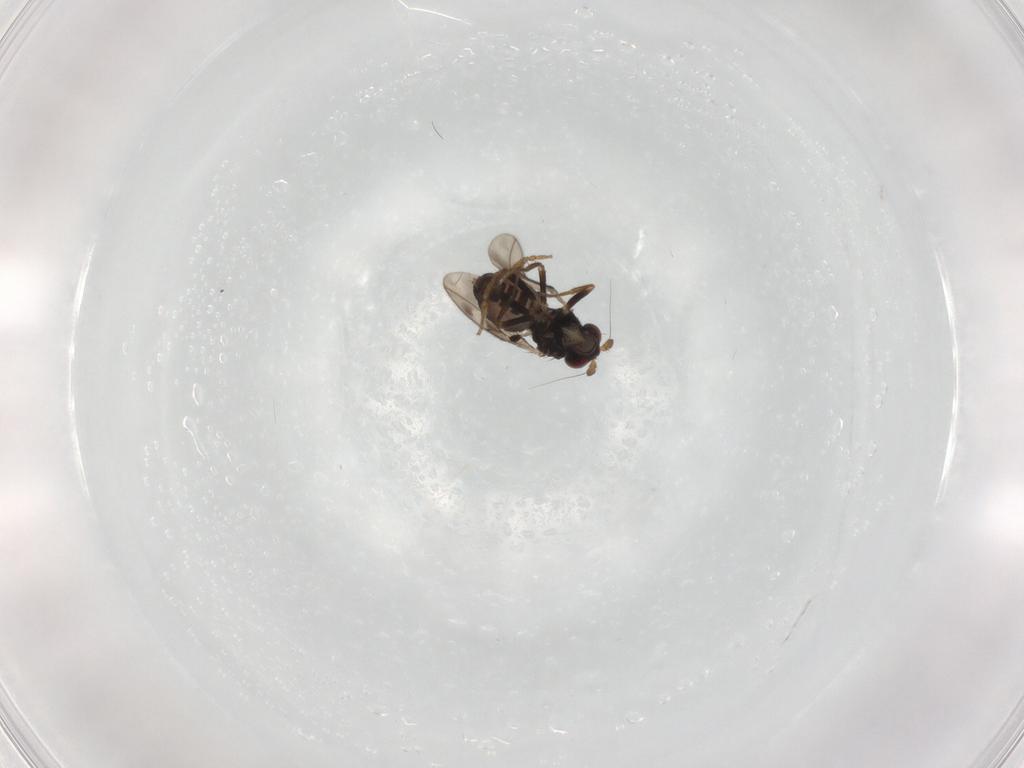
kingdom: Animalia
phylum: Arthropoda
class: Insecta
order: Diptera
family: Sphaeroceridae
